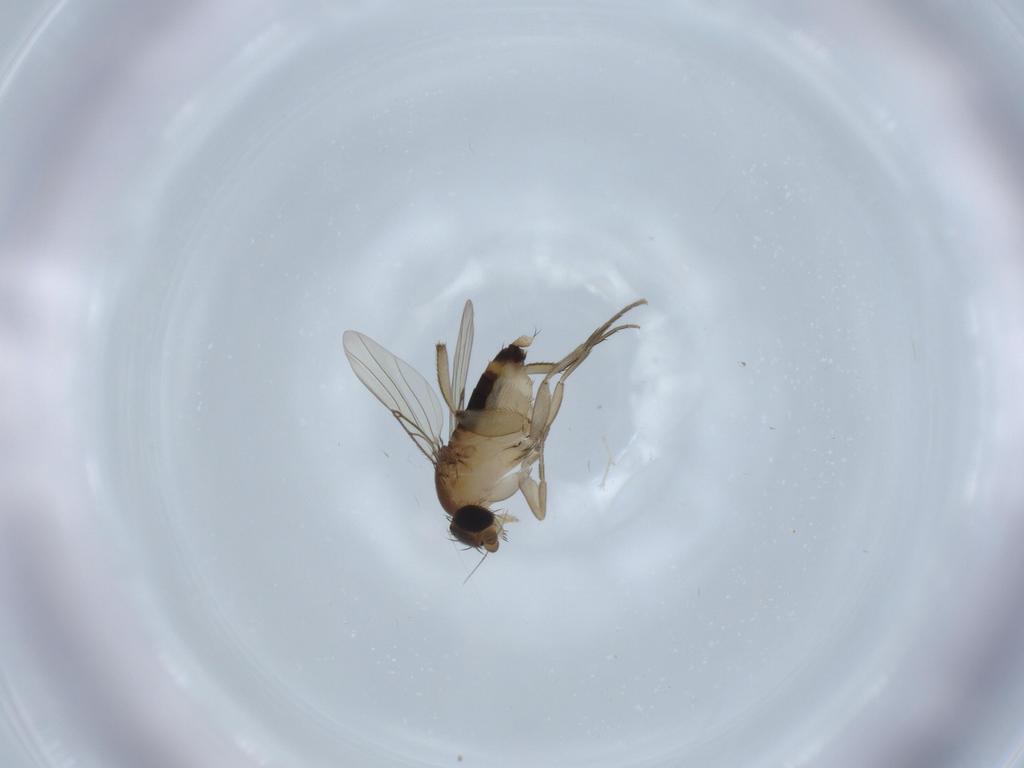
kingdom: Animalia
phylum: Arthropoda
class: Insecta
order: Diptera
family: Phoridae
